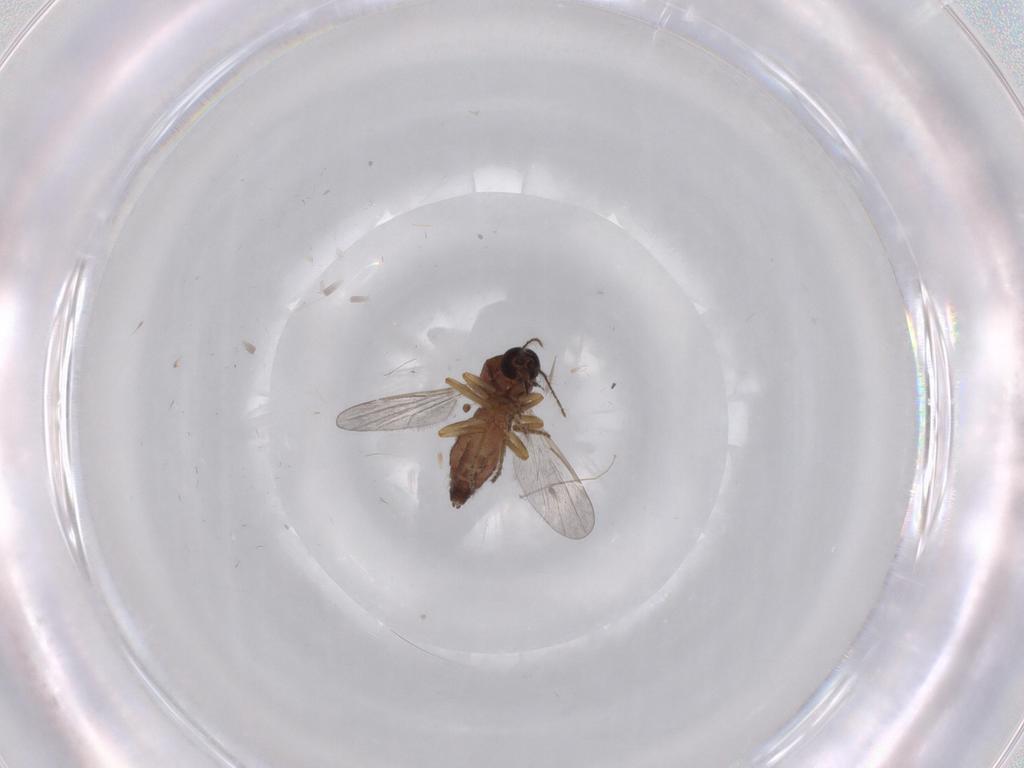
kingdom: Animalia
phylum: Arthropoda
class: Insecta
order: Diptera
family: Ceratopogonidae
